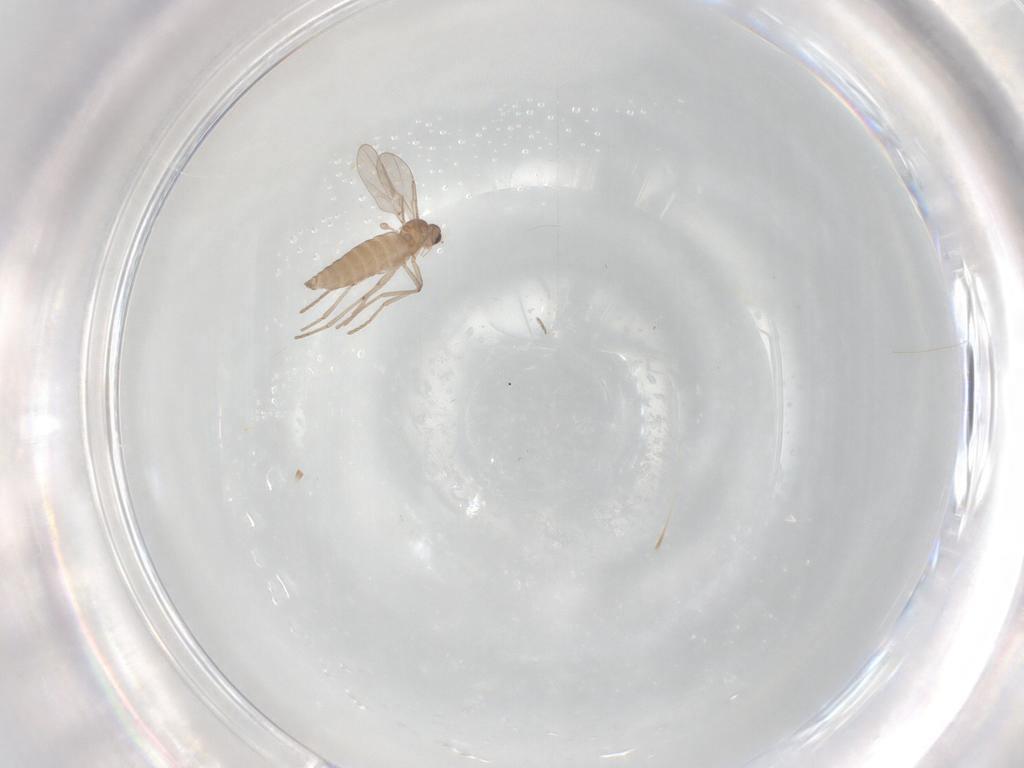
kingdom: Animalia
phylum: Arthropoda
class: Insecta
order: Diptera
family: Cecidomyiidae
